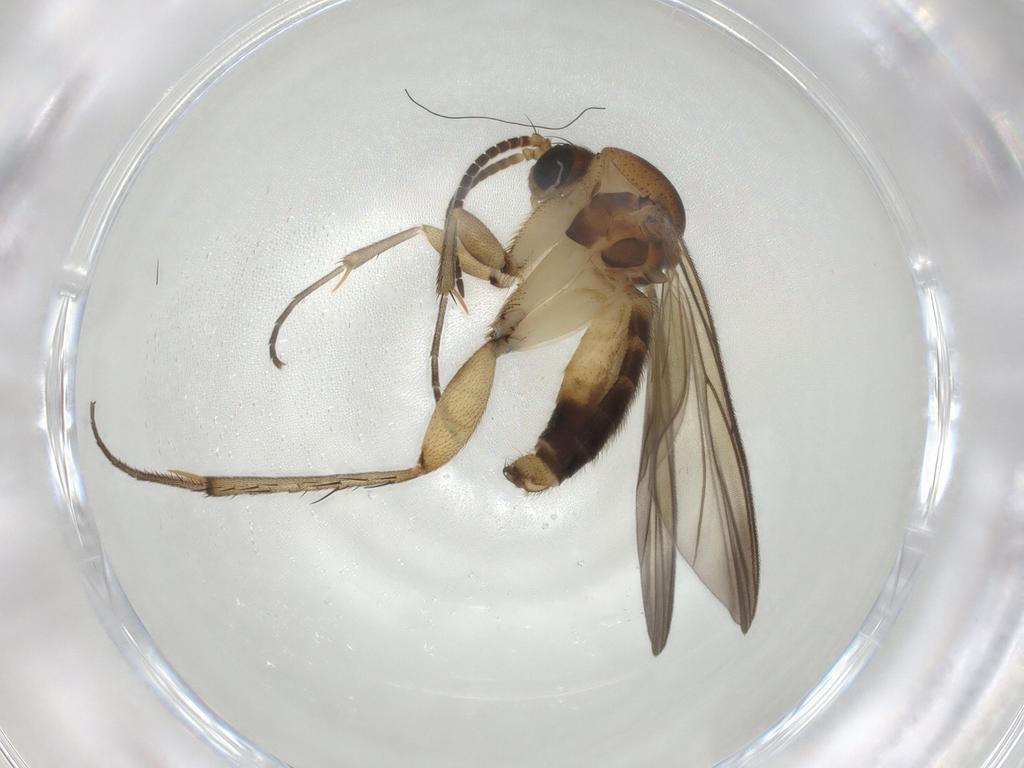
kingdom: Animalia
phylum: Arthropoda
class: Insecta
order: Diptera
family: Mycetophilidae
